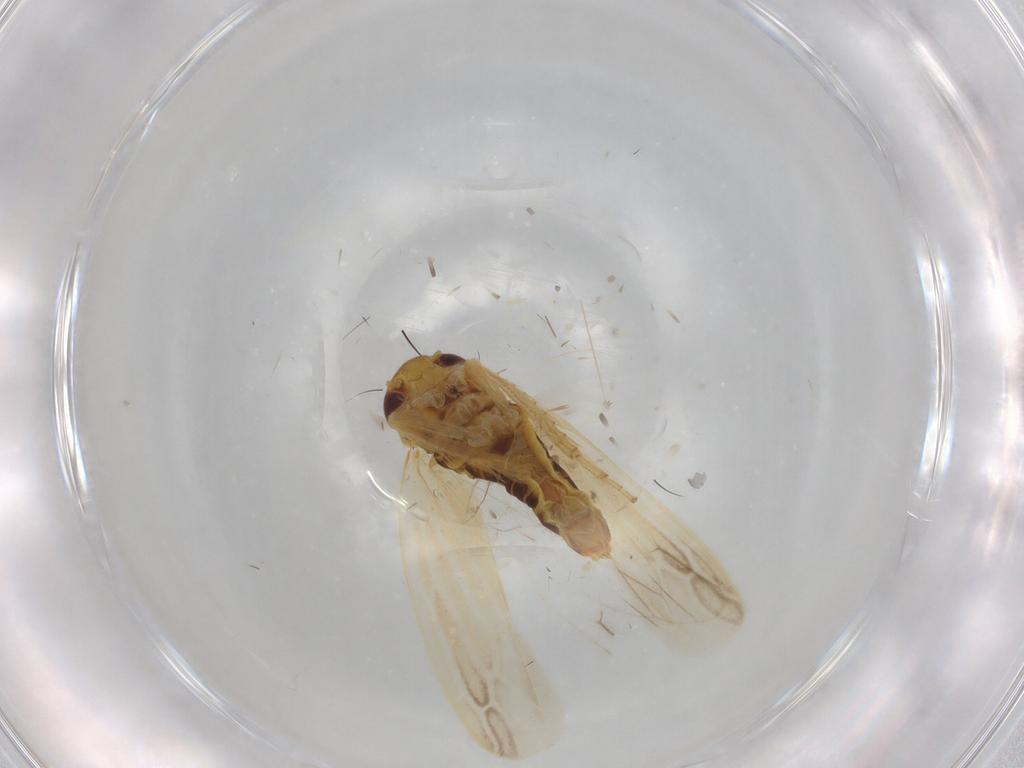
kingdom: Animalia
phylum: Arthropoda
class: Insecta
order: Hemiptera
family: Cicadellidae
